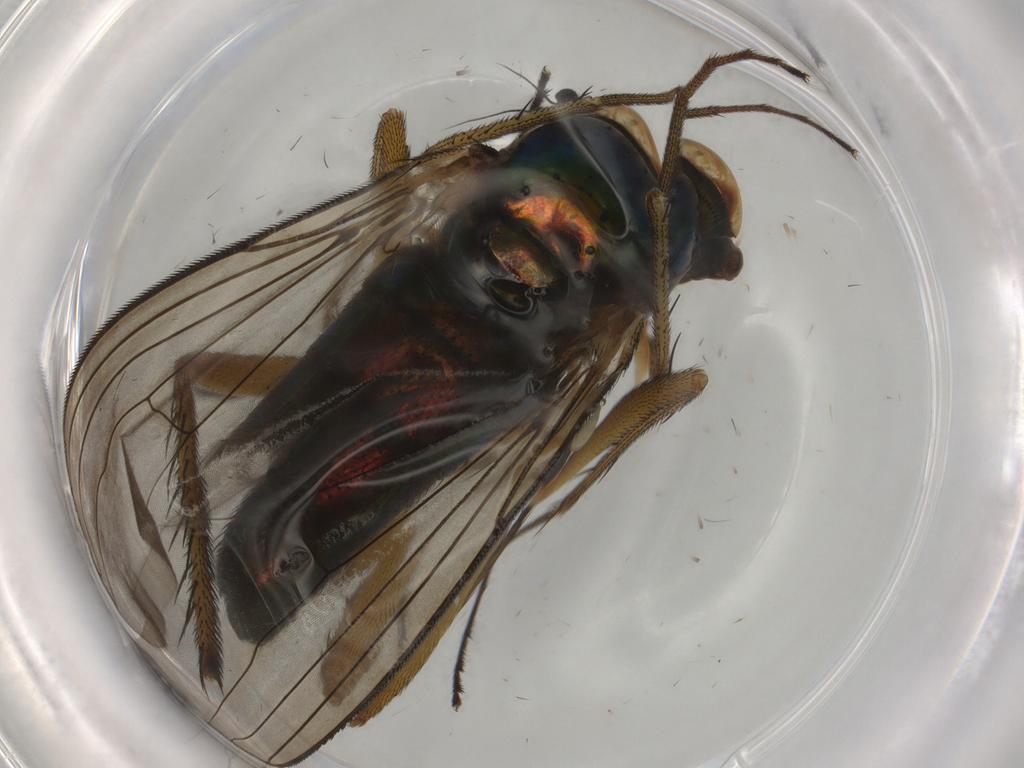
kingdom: Animalia
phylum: Arthropoda
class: Insecta
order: Diptera
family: Dolichopodidae
